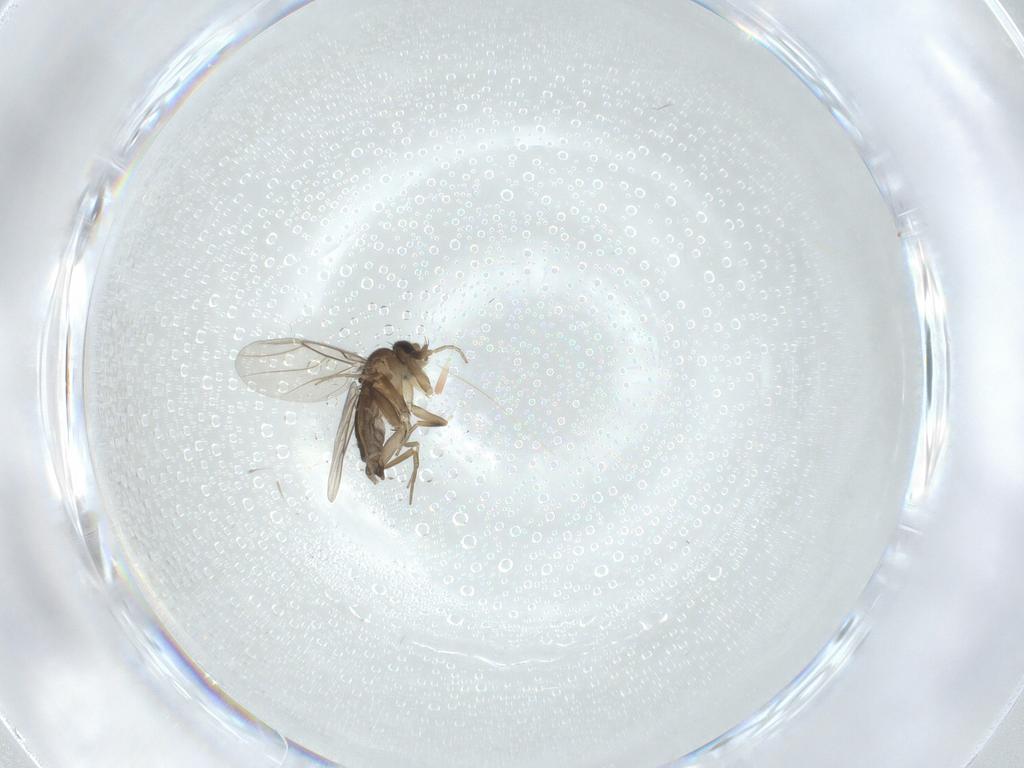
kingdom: Animalia
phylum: Arthropoda
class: Insecta
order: Diptera
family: Phoridae
